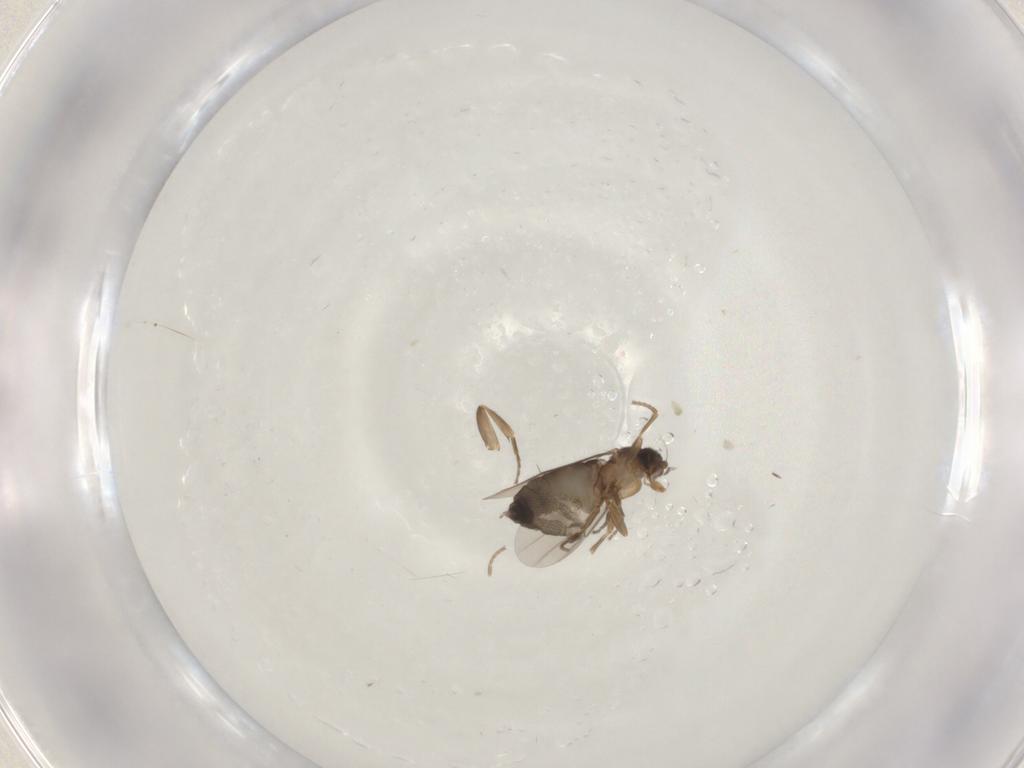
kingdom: Animalia
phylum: Arthropoda
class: Insecta
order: Diptera
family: Phoridae
